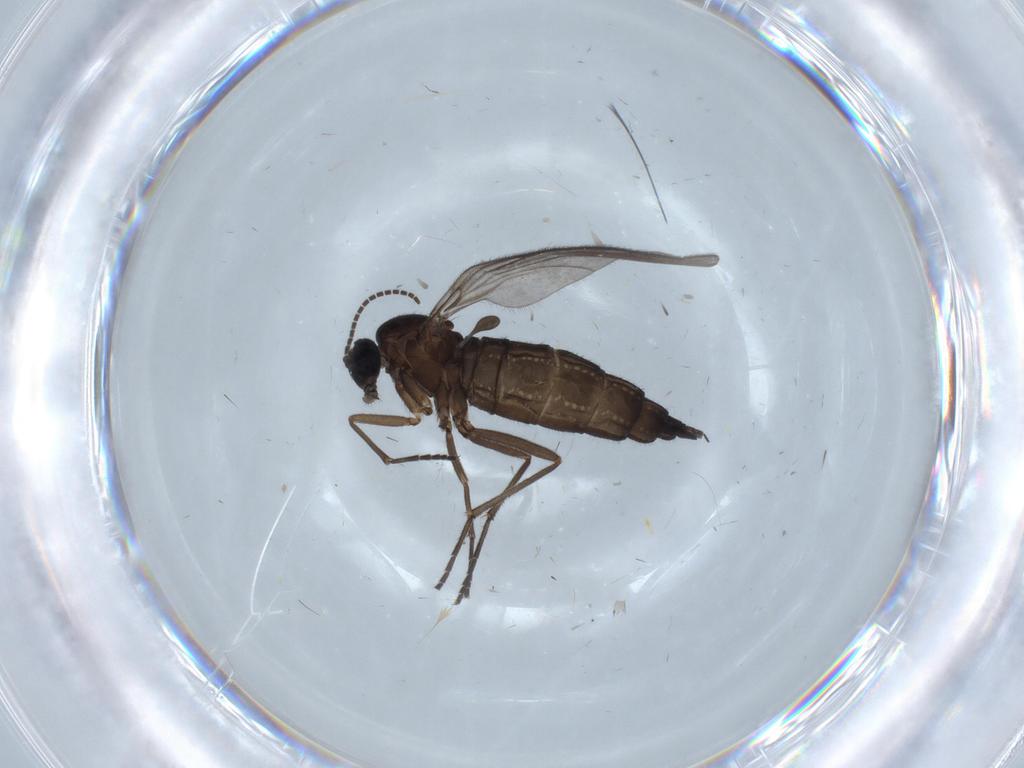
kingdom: Animalia
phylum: Arthropoda
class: Insecta
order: Diptera
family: Sciaridae
